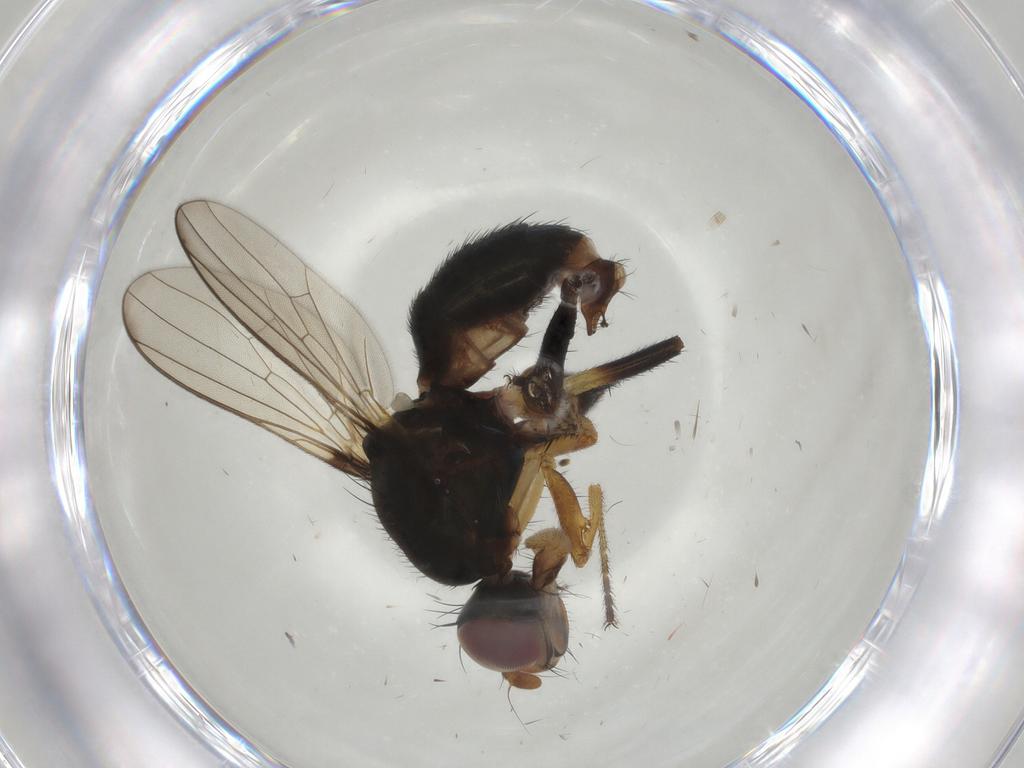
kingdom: Animalia
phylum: Arthropoda
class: Insecta
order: Diptera
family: Sepsidae
